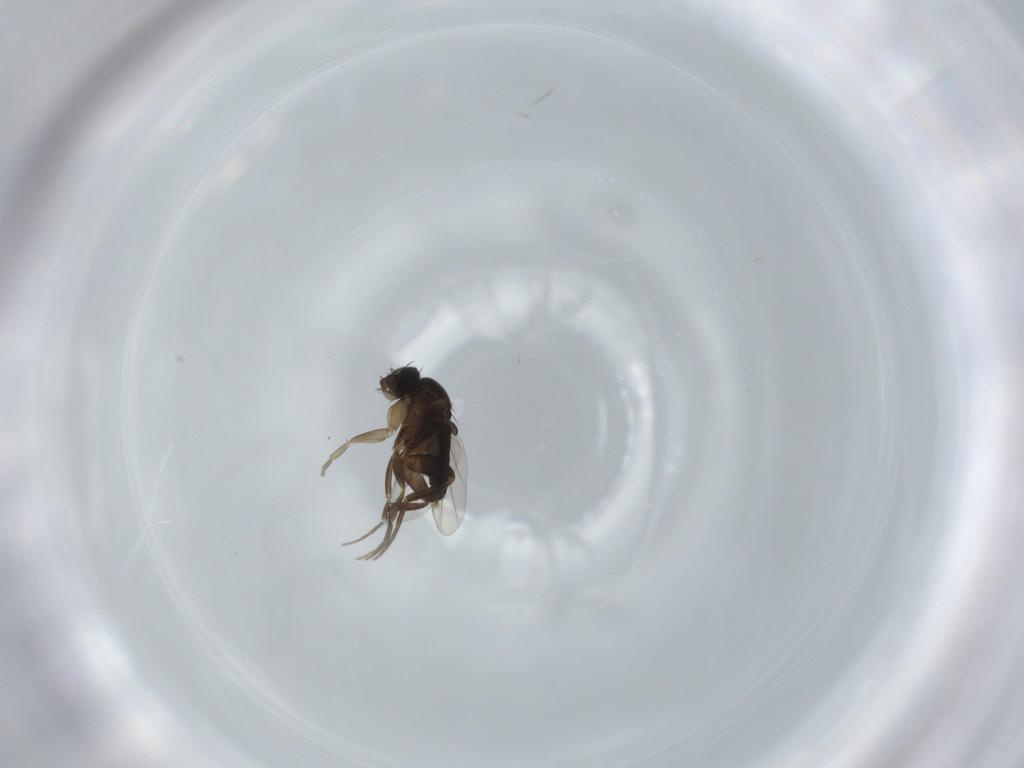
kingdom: Animalia
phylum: Arthropoda
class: Insecta
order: Diptera
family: Phoridae
